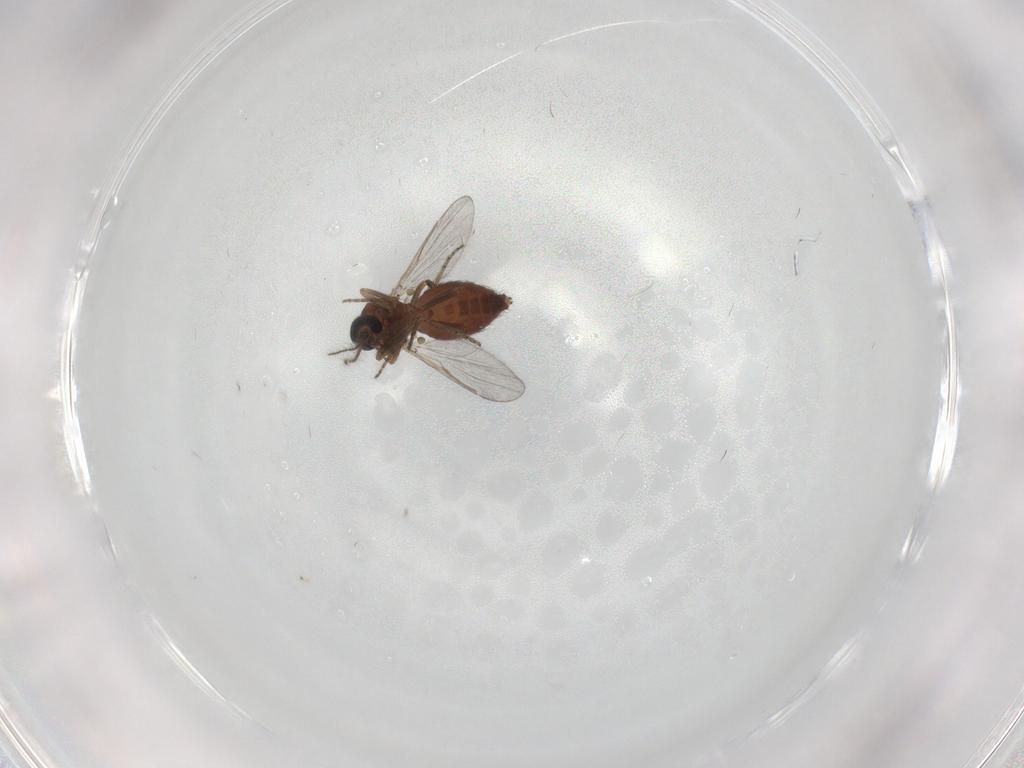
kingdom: Animalia
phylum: Arthropoda
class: Insecta
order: Diptera
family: Ceratopogonidae
